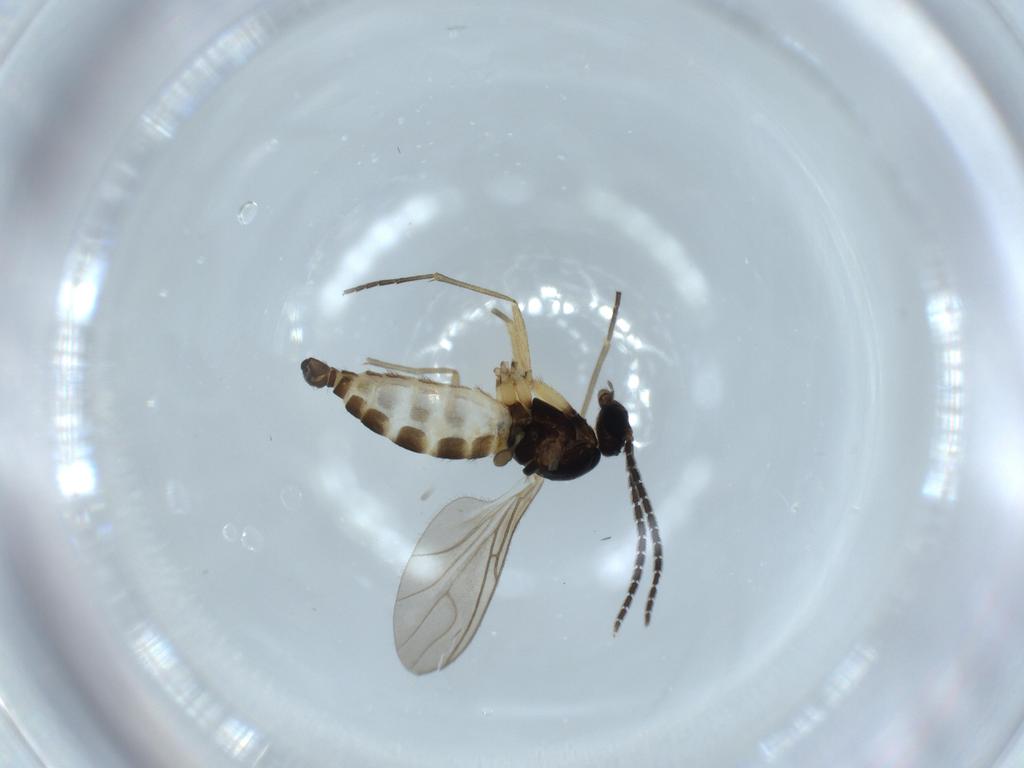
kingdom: Animalia
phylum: Arthropoda
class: Insecta
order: Diptera
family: Sciaridae
